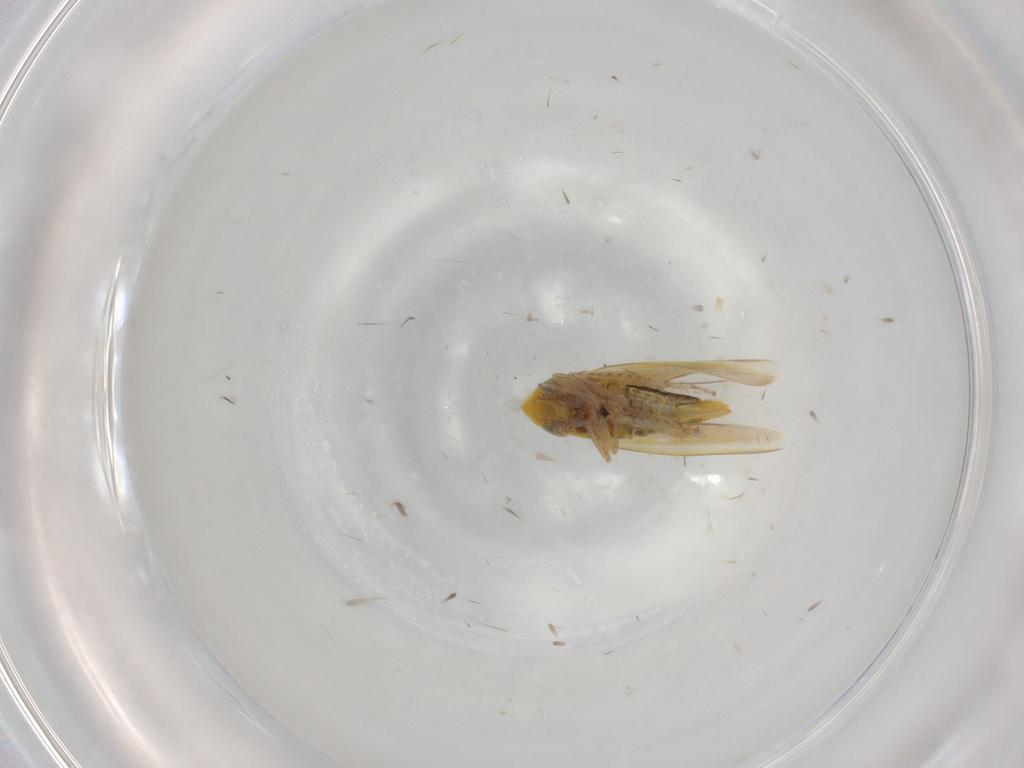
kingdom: Animalia
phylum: Arthropoda
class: Insecta
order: Hemiptera
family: Cicadellidae
